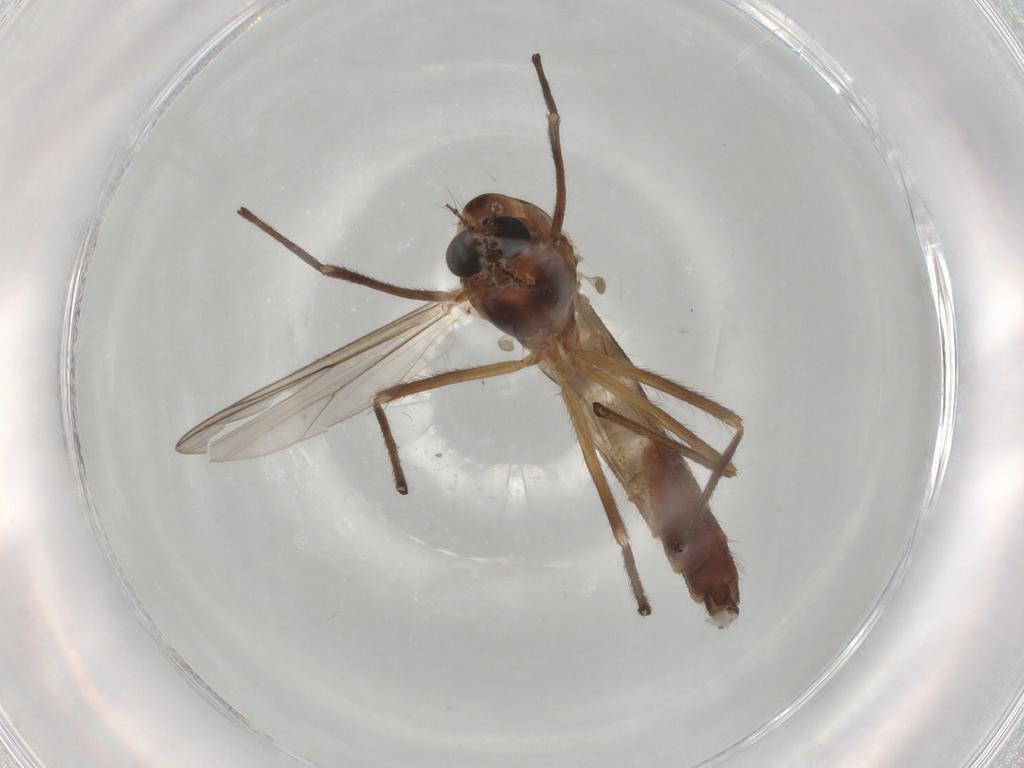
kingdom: Animalia
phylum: Arthropoda
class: Insecta
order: Diptera
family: Chironomidae
